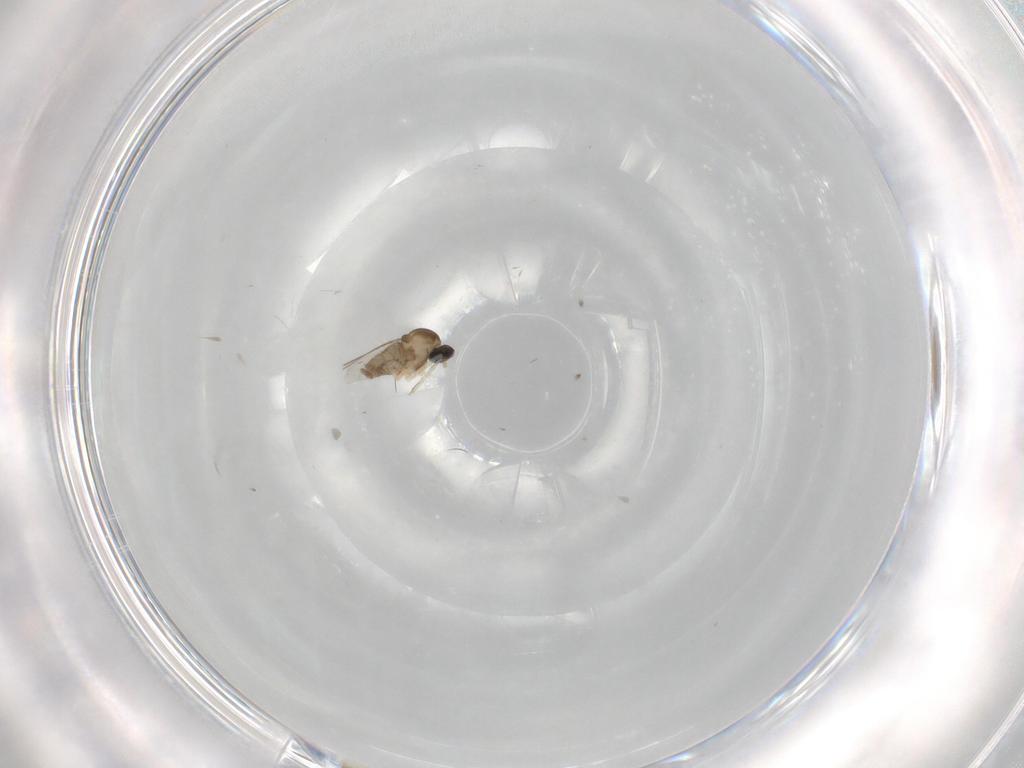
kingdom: Animalia
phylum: Arthropoda
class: Insecta
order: Diptera
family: Cecidomyiidae
